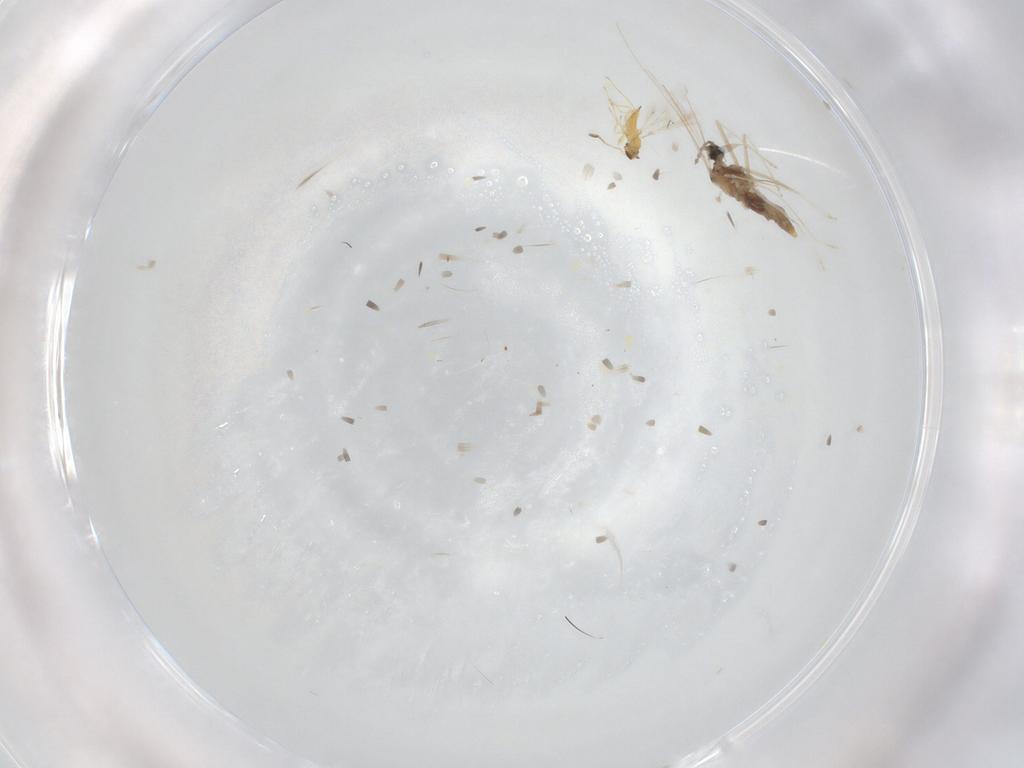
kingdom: Animalia
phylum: Arthropoda
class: Insecta
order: Diptera
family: Cecidomyiidae
